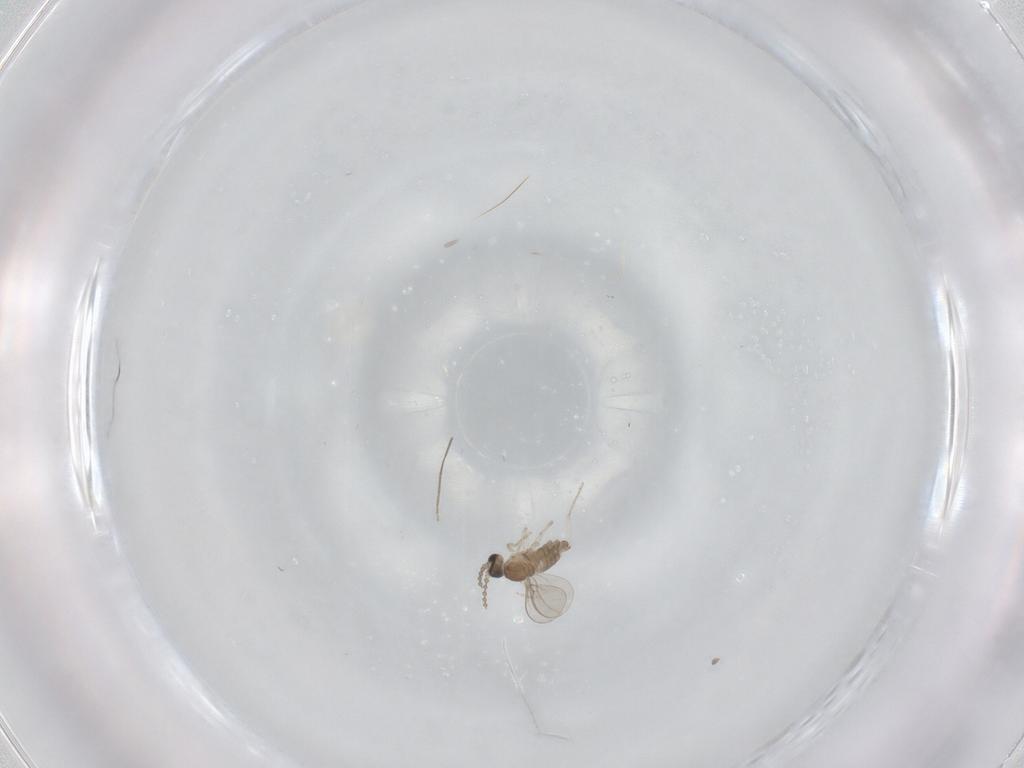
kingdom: Animalia
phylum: Arthropoda
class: Insecta
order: Diptera
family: Cecidomyiidae
